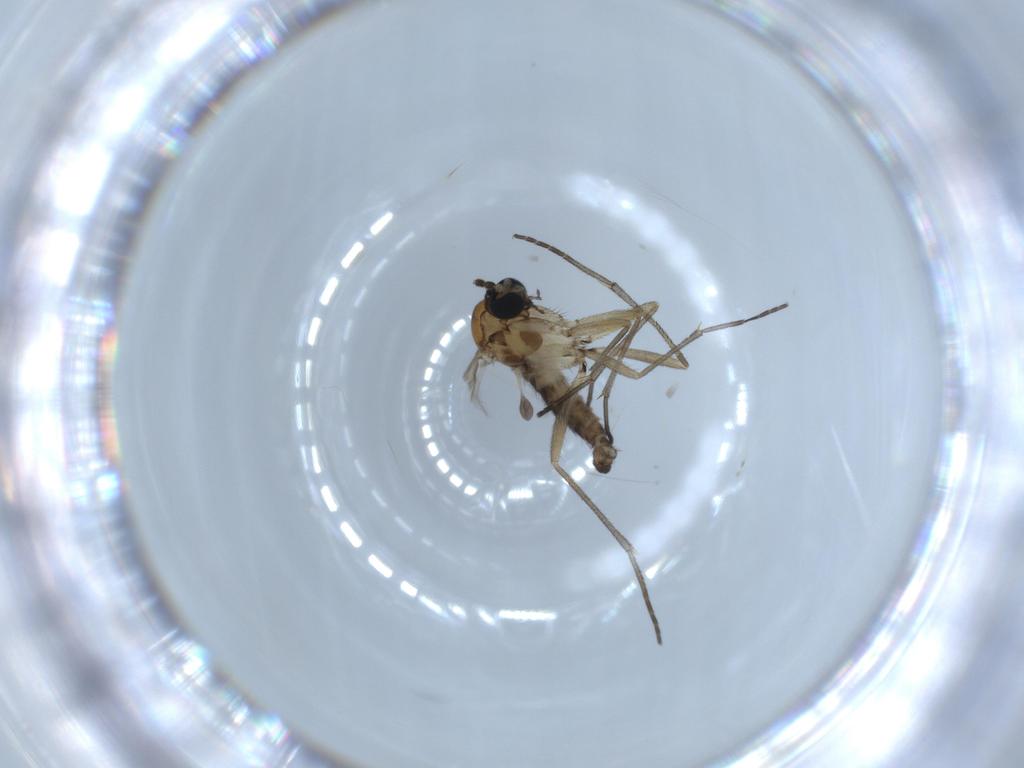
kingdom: Animalia
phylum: Arthropoda
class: Insecta
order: Diptera
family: Sciaridae
